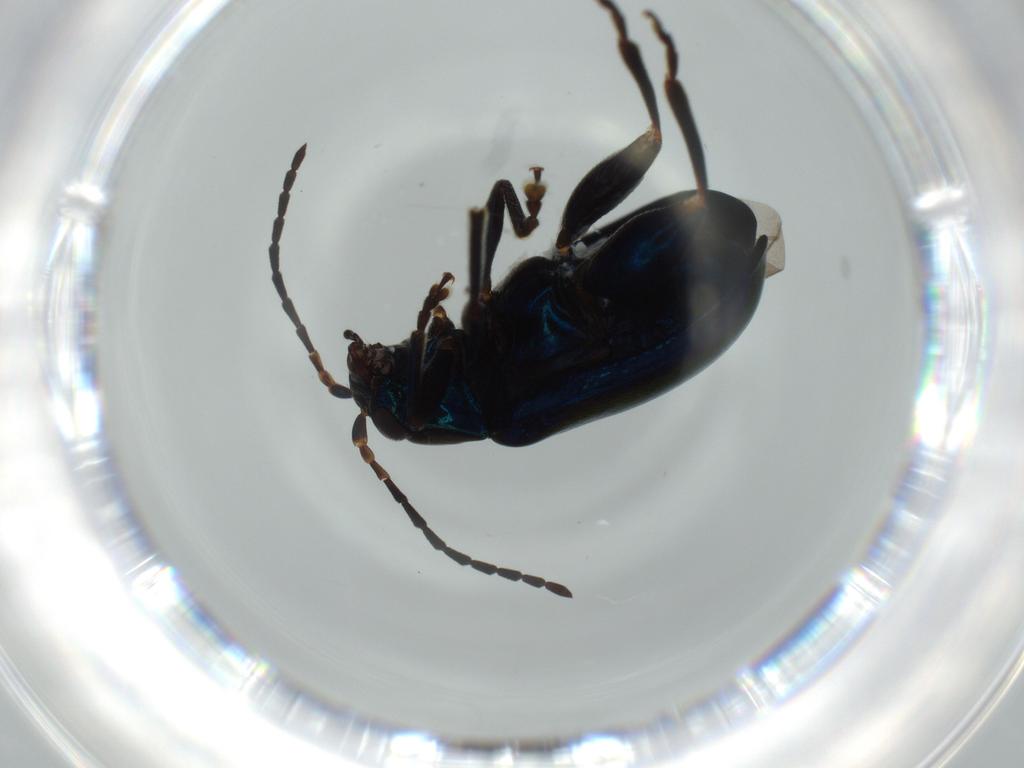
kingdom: Animalia
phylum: Arthropoda
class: Insecta
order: Coleoptera
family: Chrysomelidae
